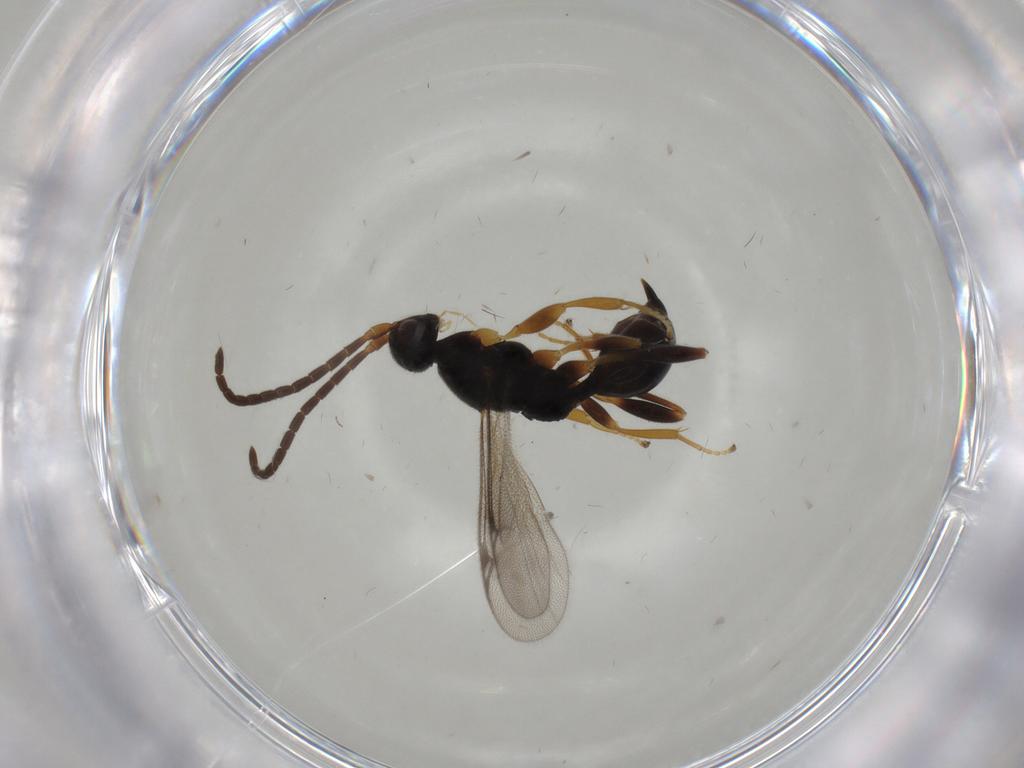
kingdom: Animalia
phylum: Arthropoda
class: Insecta
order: Hymenoptera
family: Proctotrupidae
